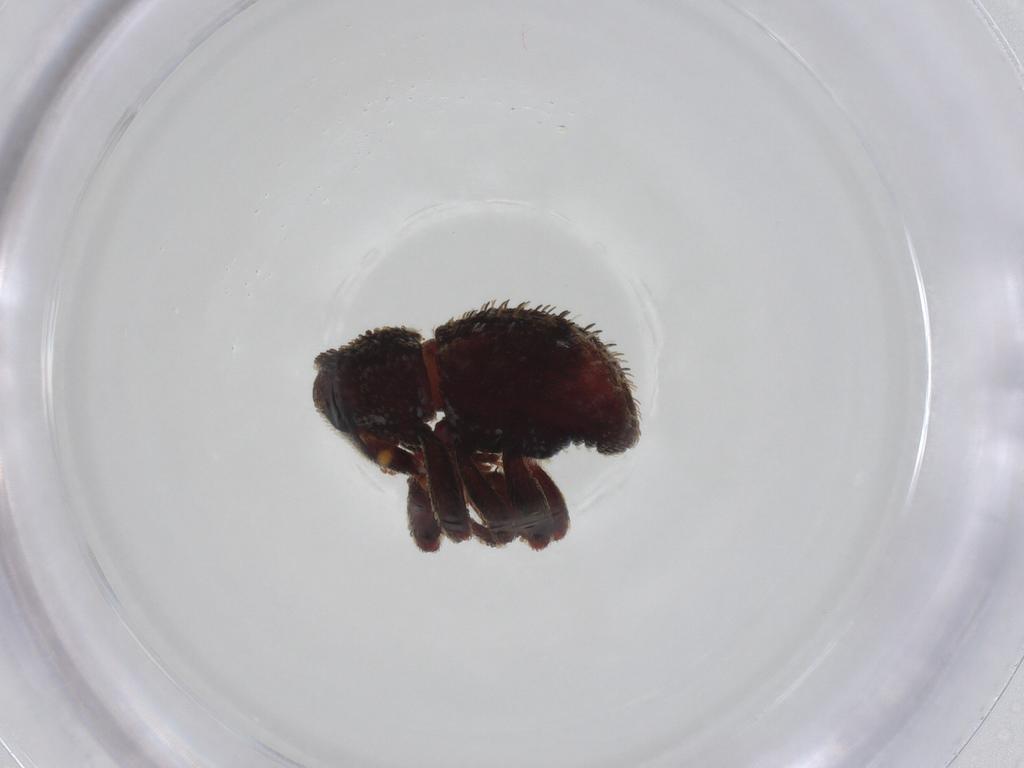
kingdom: Animalia
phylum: Arthropoda
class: Insecta
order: Coleoptera
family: Curculionidae
